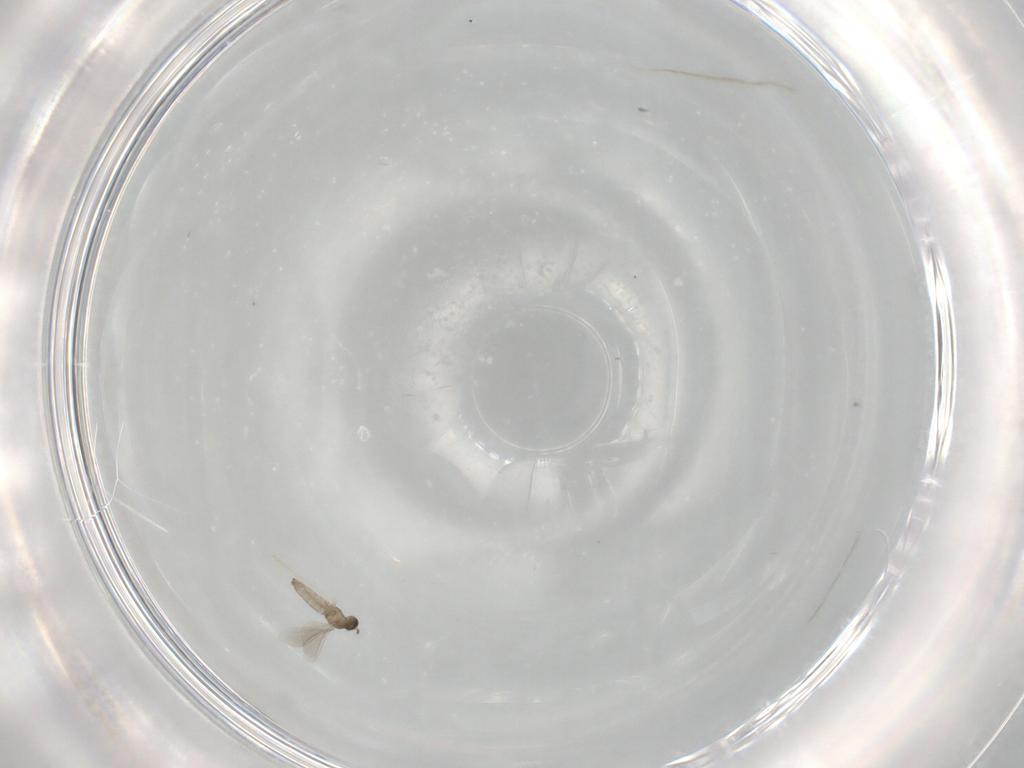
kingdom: Animalia
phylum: Arthropoda
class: Insecta
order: Diptera
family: Cecidomyiidae
